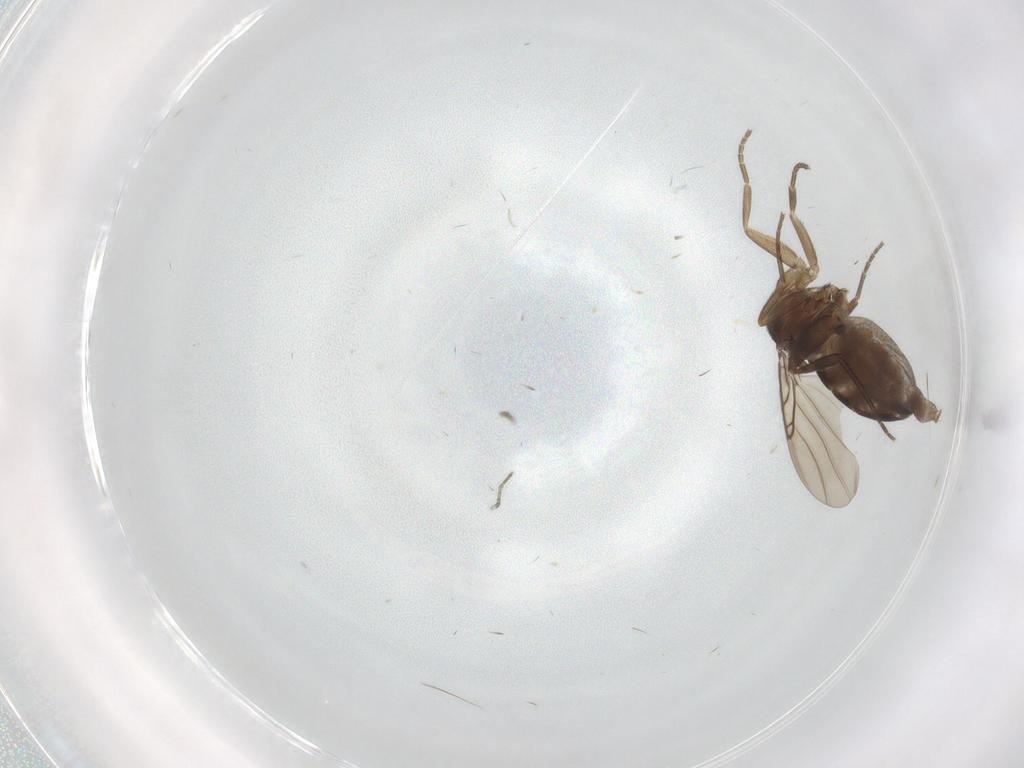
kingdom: Animalia
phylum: Arthropoda
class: Insecta
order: Diptera
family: Phoridae
